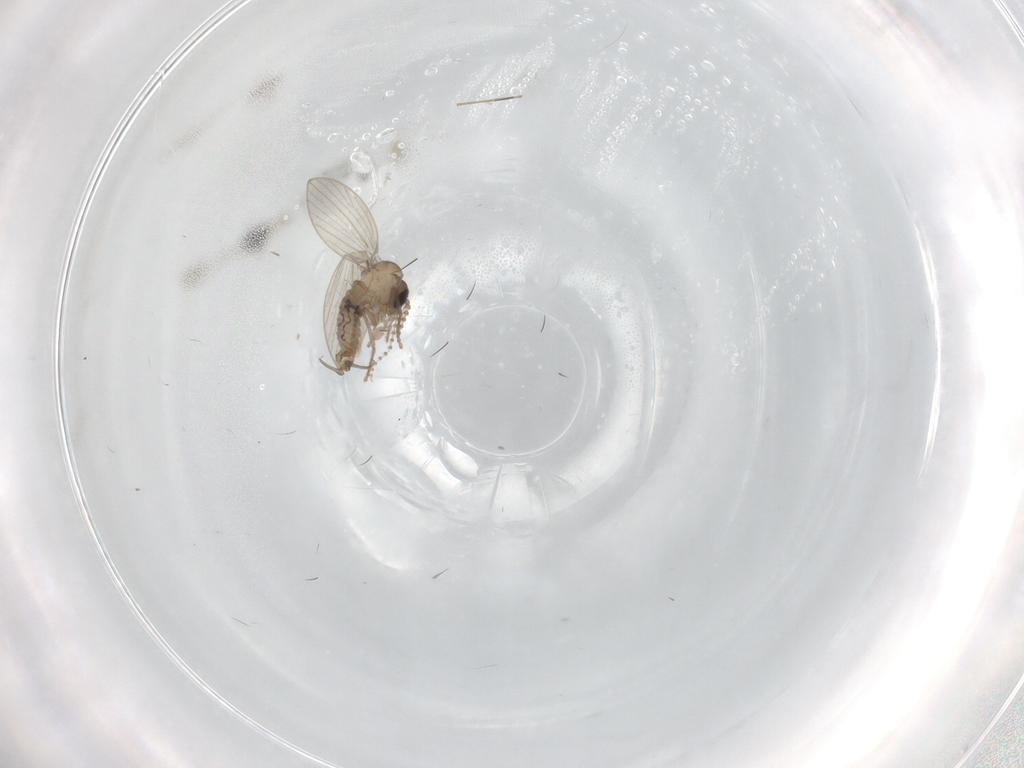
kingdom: Animalia
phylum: Arthropoda
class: Insecta
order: Diptera
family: Psychodidae
